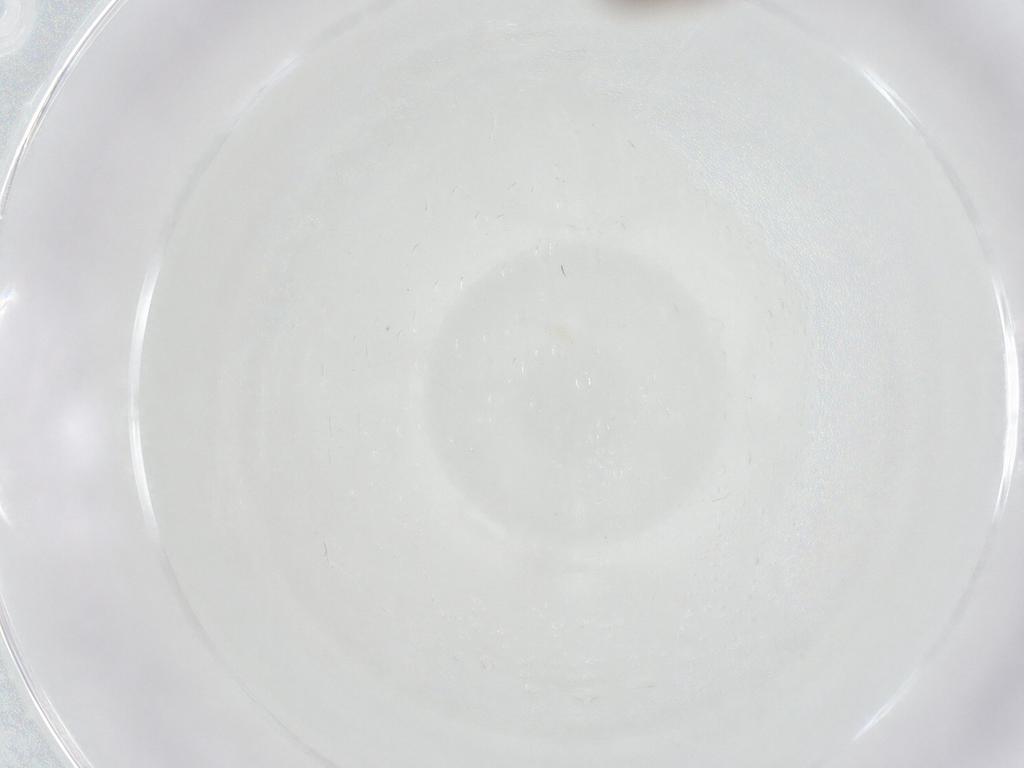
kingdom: Animalia
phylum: Arthropoda
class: Insecta
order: Diptera
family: Psychodidae
